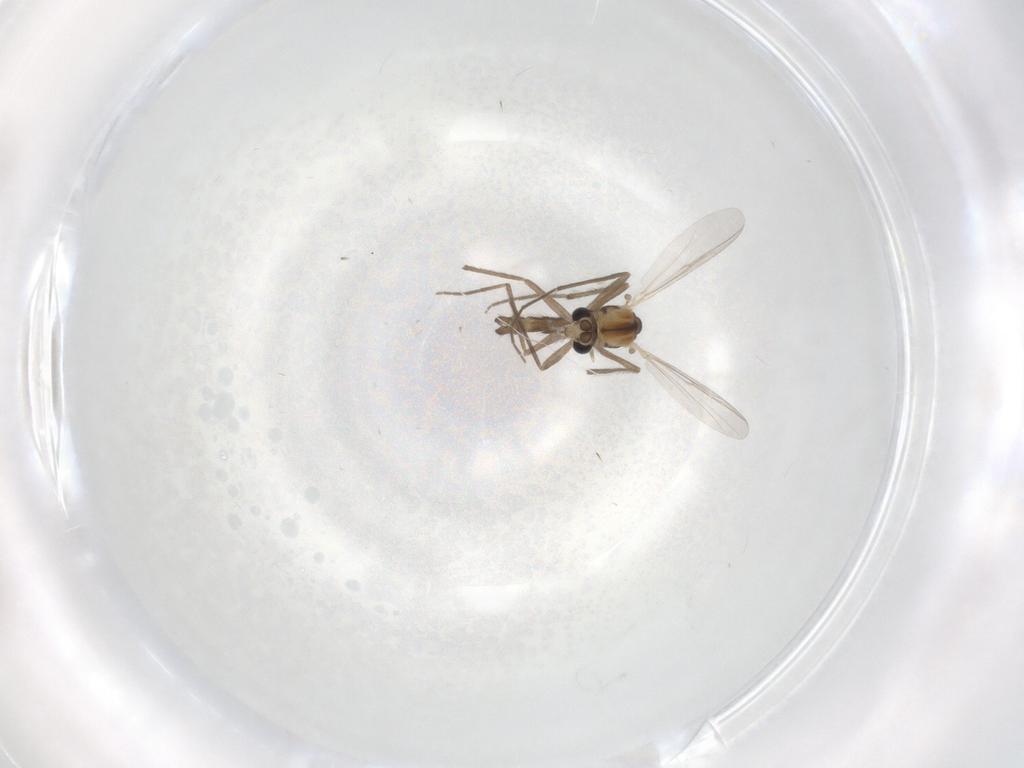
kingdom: Animalia
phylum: Arthropoda
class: Insecta
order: Diptera
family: Chironomidae
